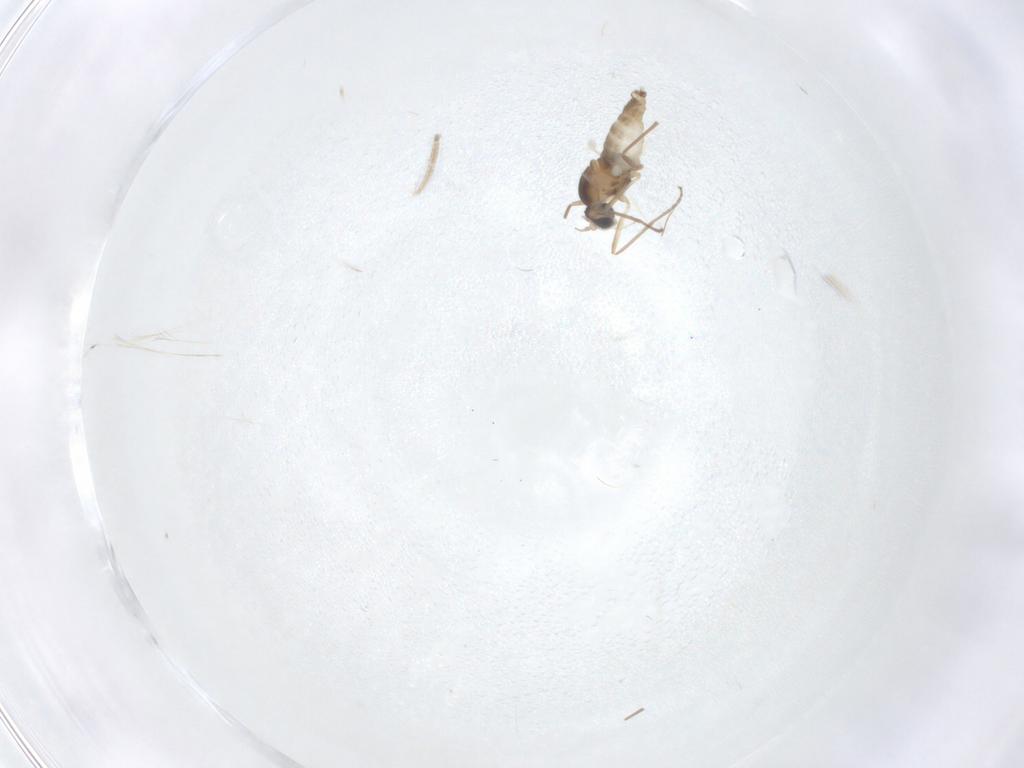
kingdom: Animalia
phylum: Arthropoda
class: Insecta
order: Diptera
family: Cecidomyiidae
